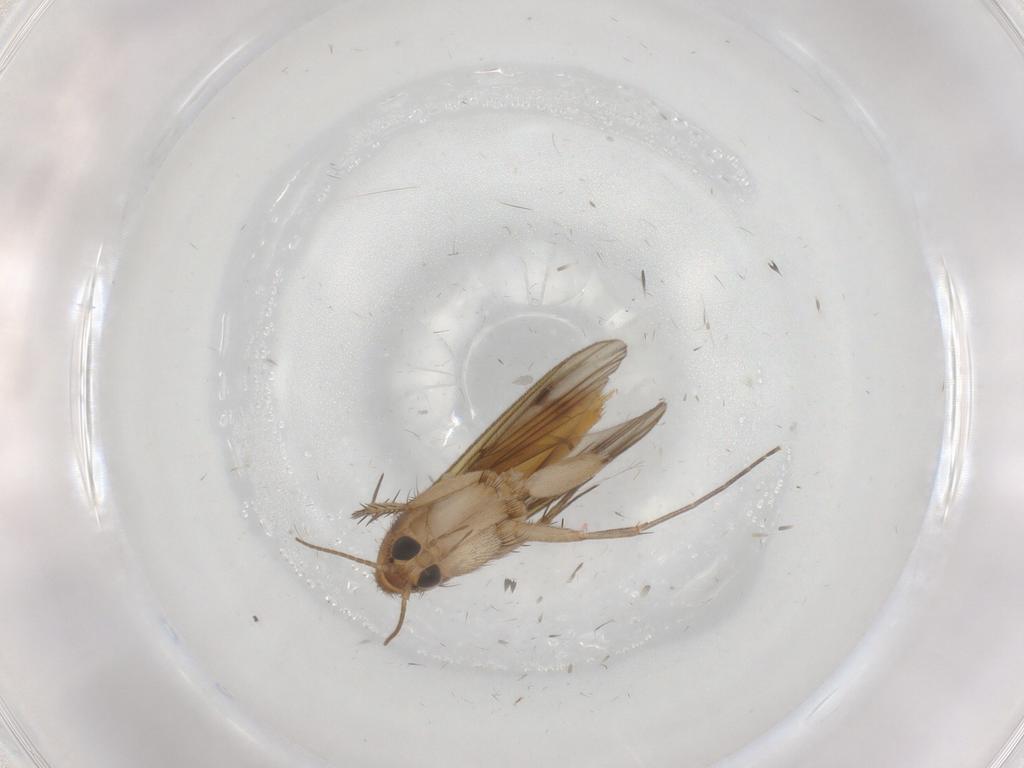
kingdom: Animalia
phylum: Arthropoda
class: Insecta
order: Diptera
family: Mycetophilidae
